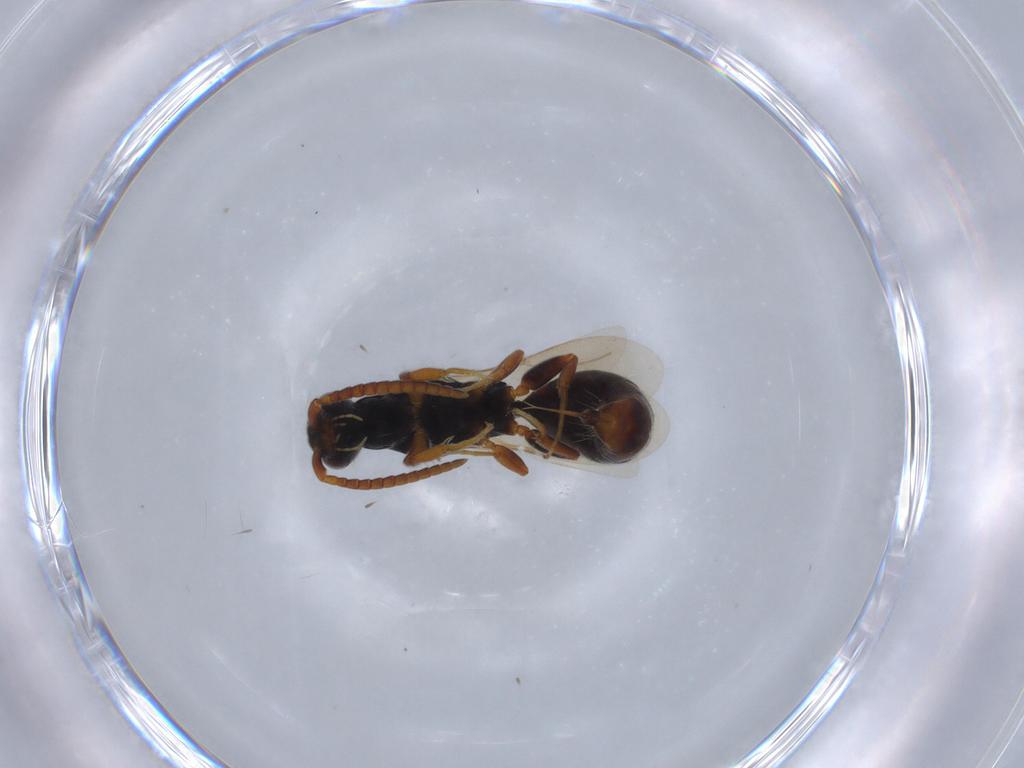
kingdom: Animalia
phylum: Arthropoda
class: Insecta
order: Hymenoptera
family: Bethylidae
